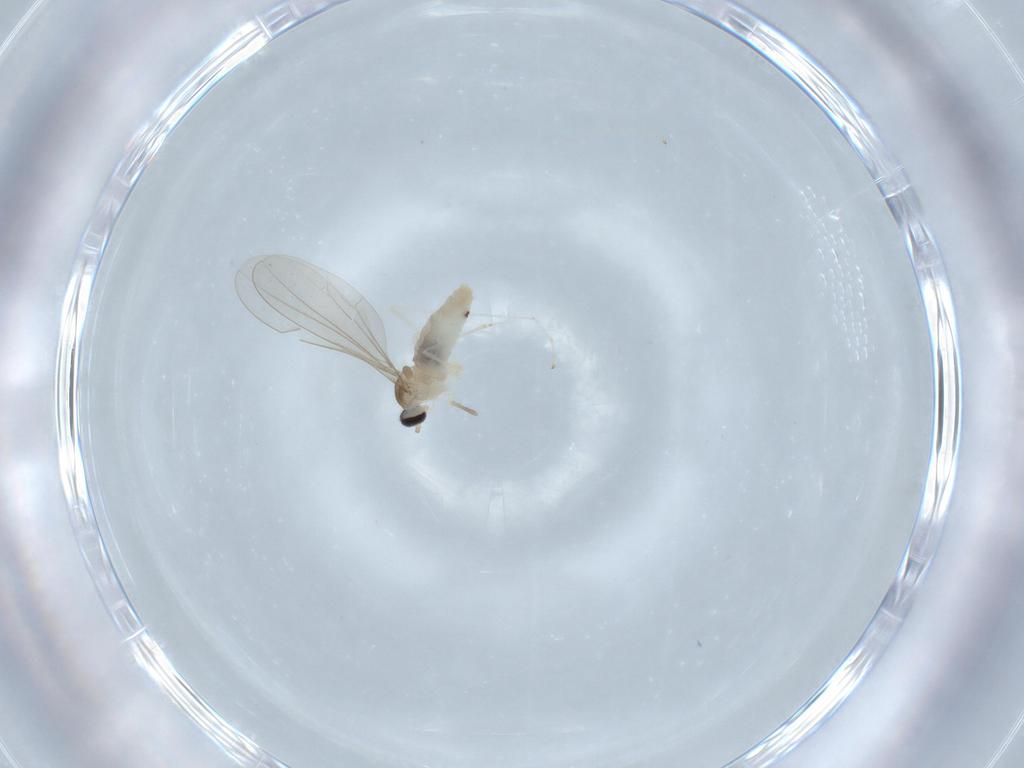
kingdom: Animalia
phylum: Arthropoda
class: Insecta
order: Diptera
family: Cecidomyiidae
